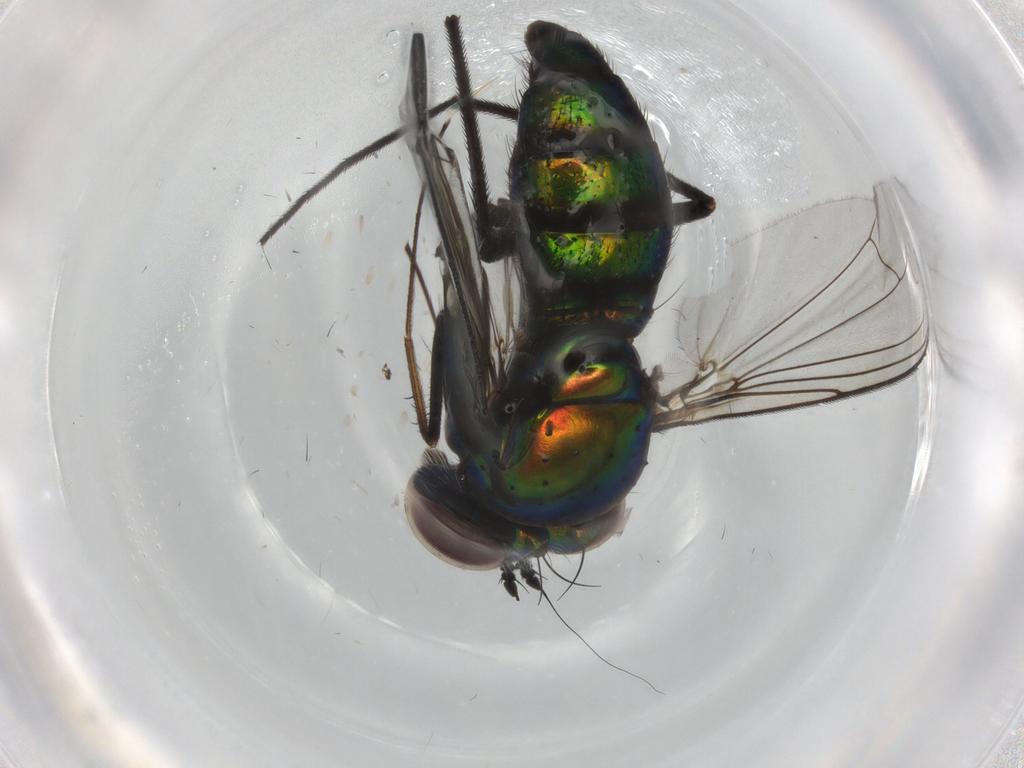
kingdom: Animalia
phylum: Arthropoda
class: Insecta
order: Diptera
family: Dolichopodidae
